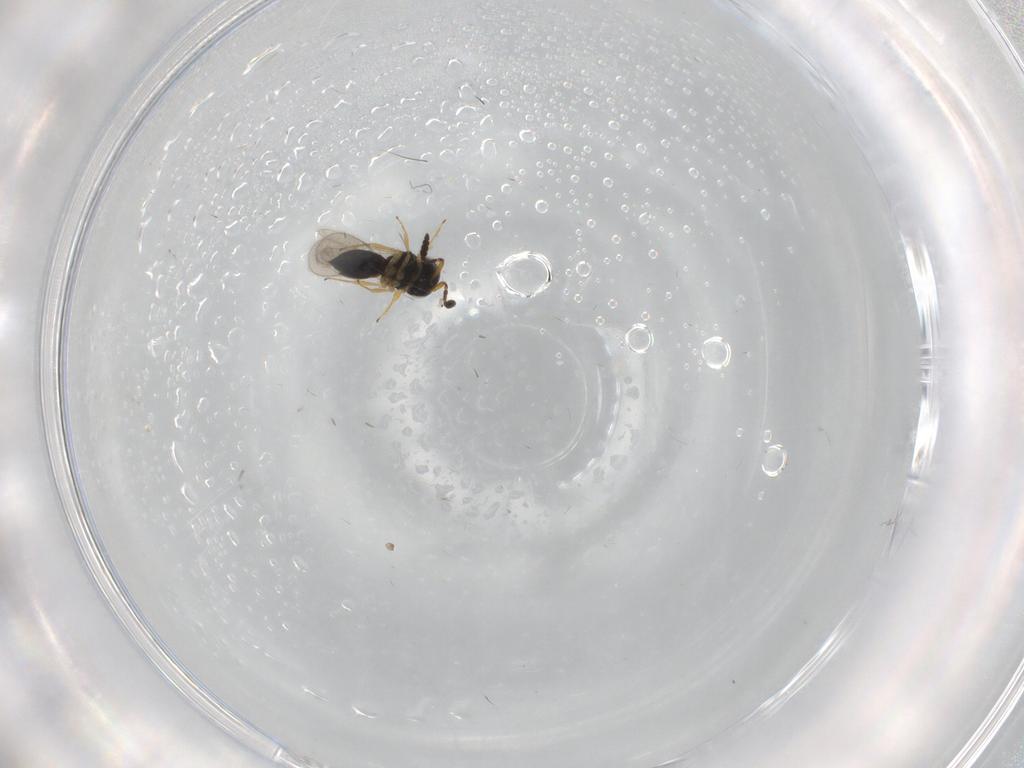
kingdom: Animalia
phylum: Arthropoda
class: Insecta
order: Hymenoptera
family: Scelionidae
